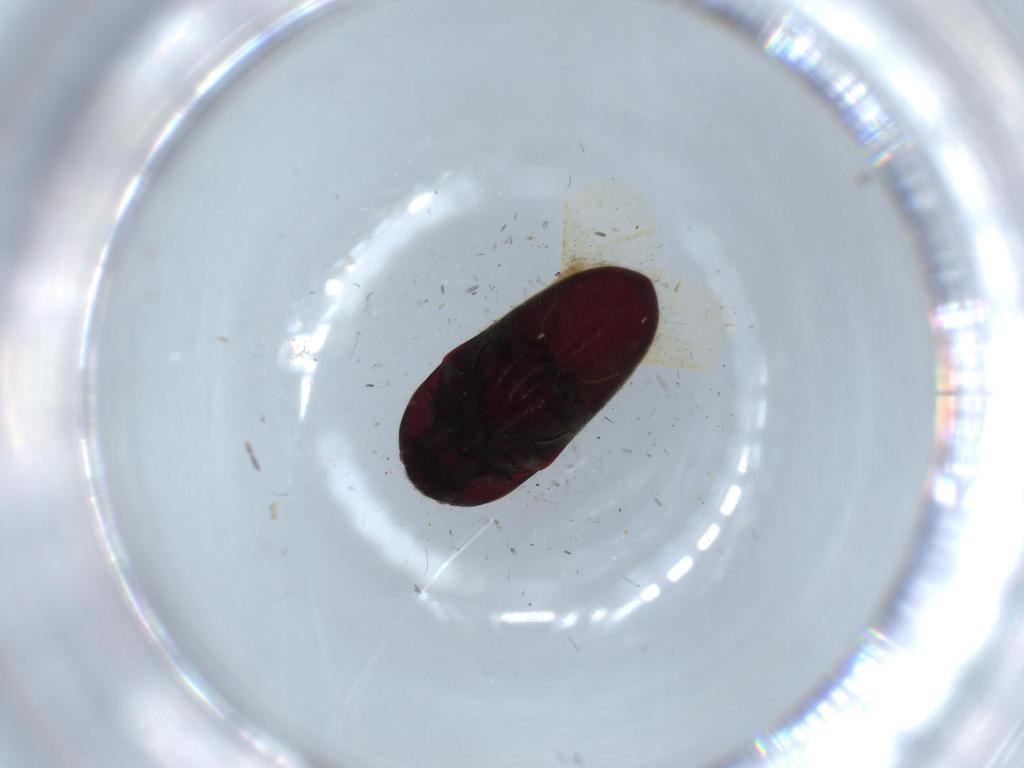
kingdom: Animalia
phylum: Arthropoda
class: Insecta
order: Coleoptera
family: Throscidae
